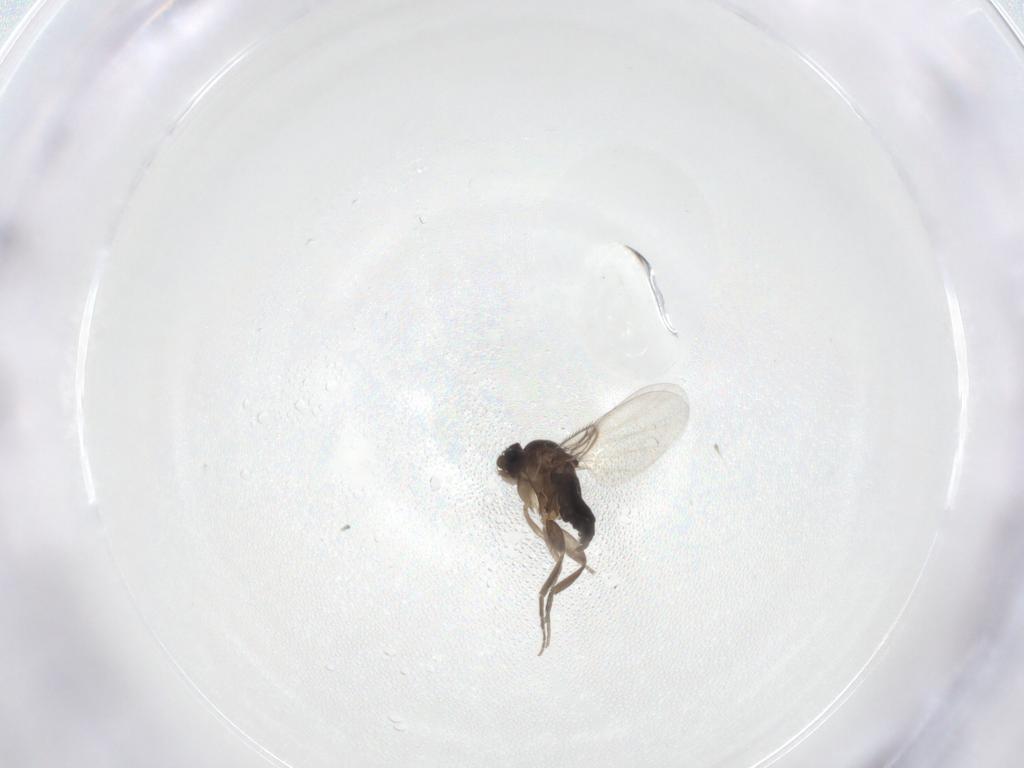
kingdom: Animalia
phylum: Arthropoda
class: Insecta
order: Diptera
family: Phoridae
